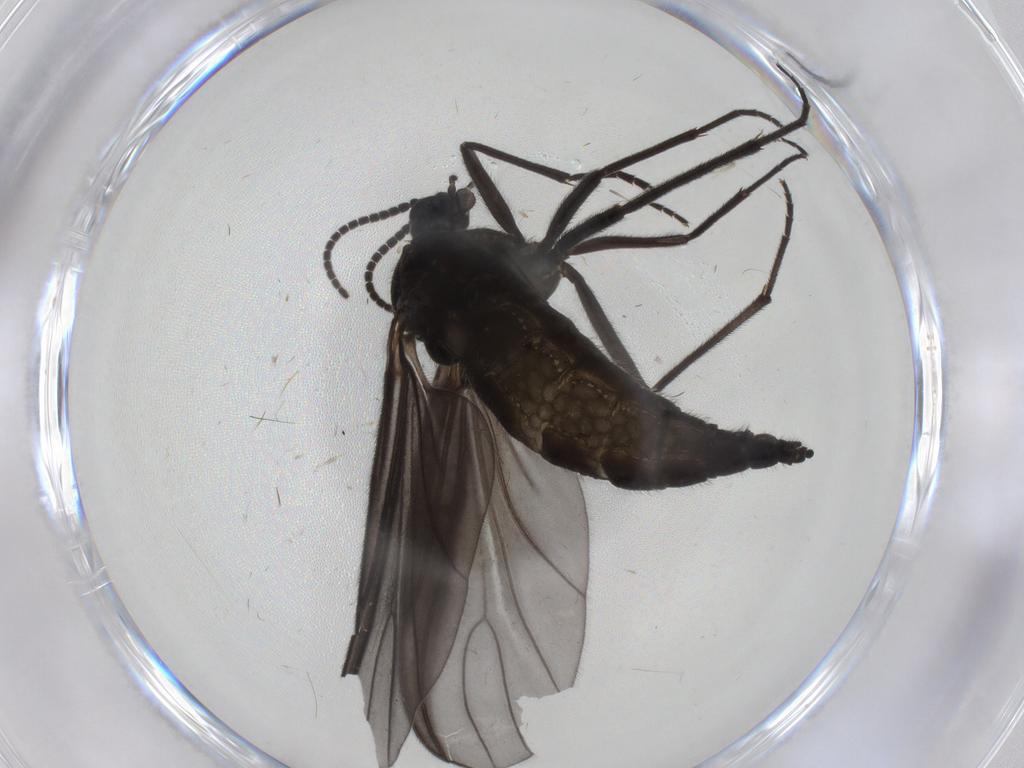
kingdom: Animalia
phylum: Arthropoda
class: Insecta
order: Diptera
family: Sciaridae
